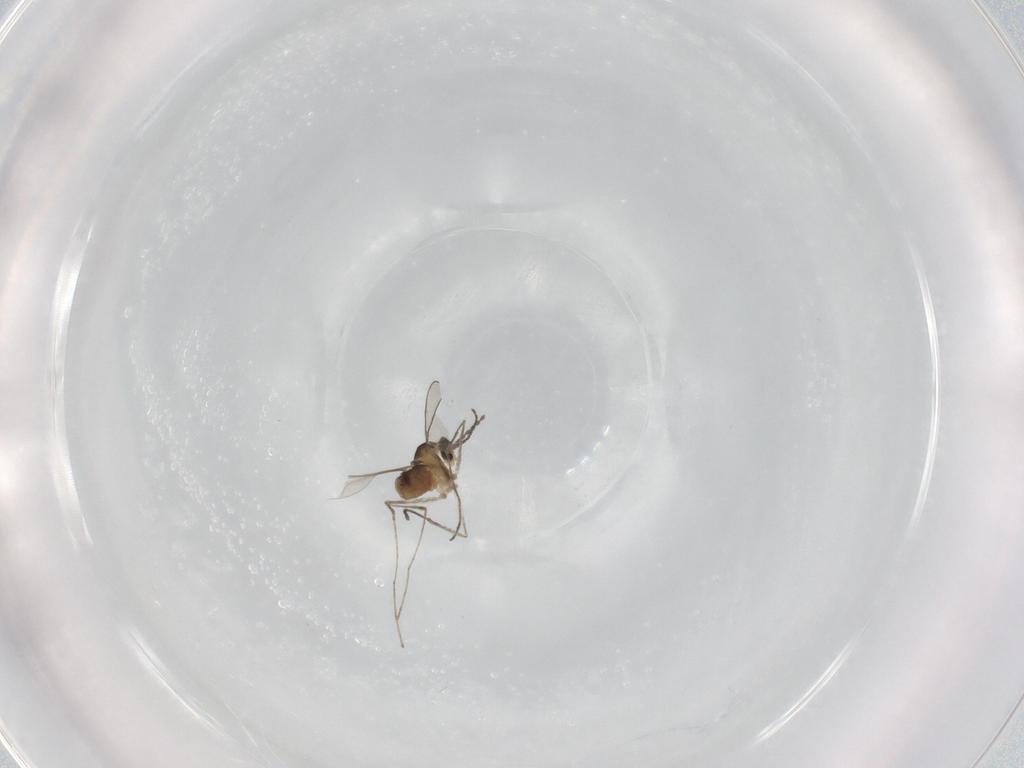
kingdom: Animalia
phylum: Arthropoda
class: Insecta
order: Diptera
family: Cecidomyiidae
